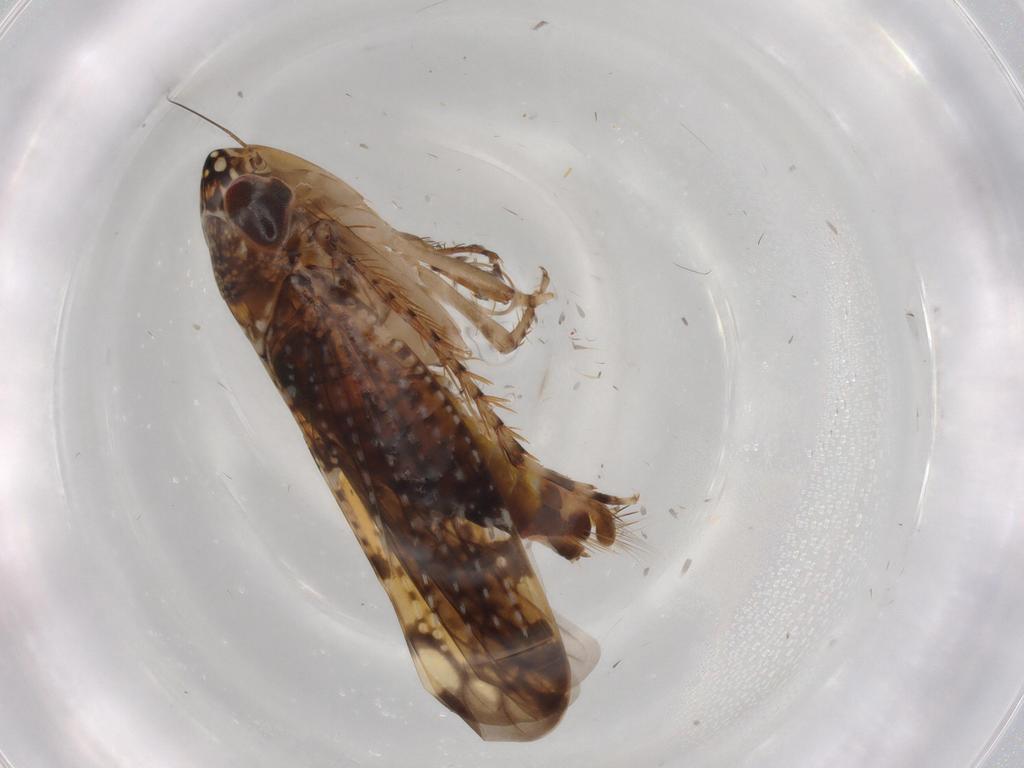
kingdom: Animalia
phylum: Arthropoda
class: Insecta
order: Hemiptera
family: Cicadellidae
